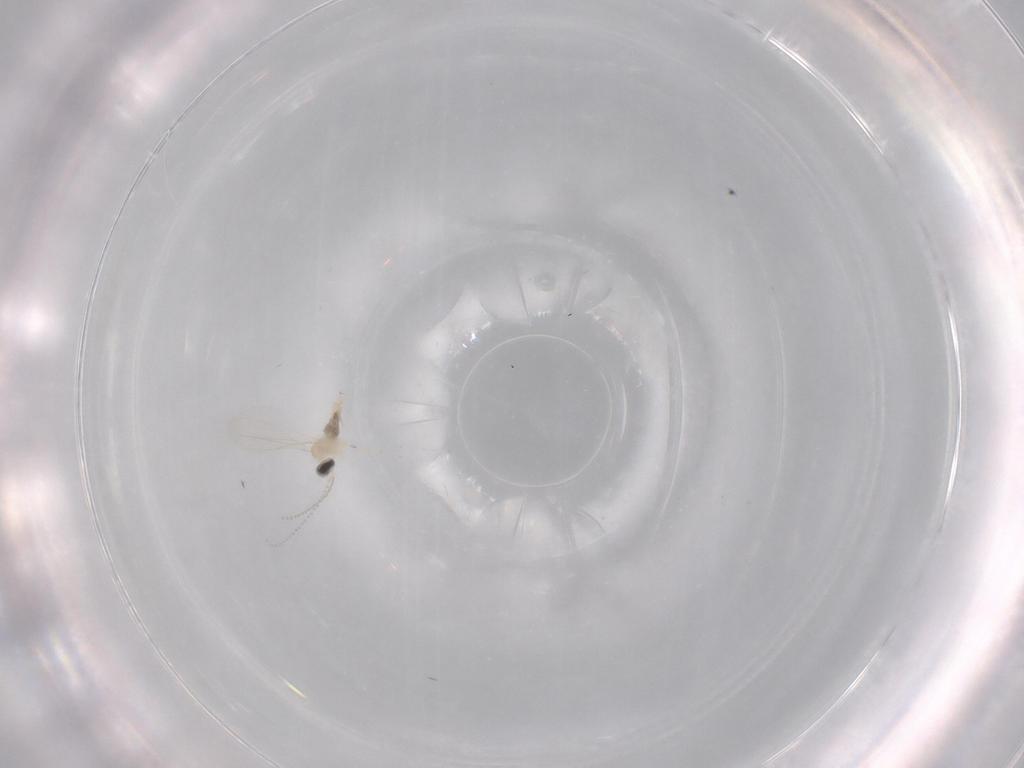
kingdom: Animalia
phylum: Arthropoda
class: Insecta
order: Diptera
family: Cecidomyiidae
